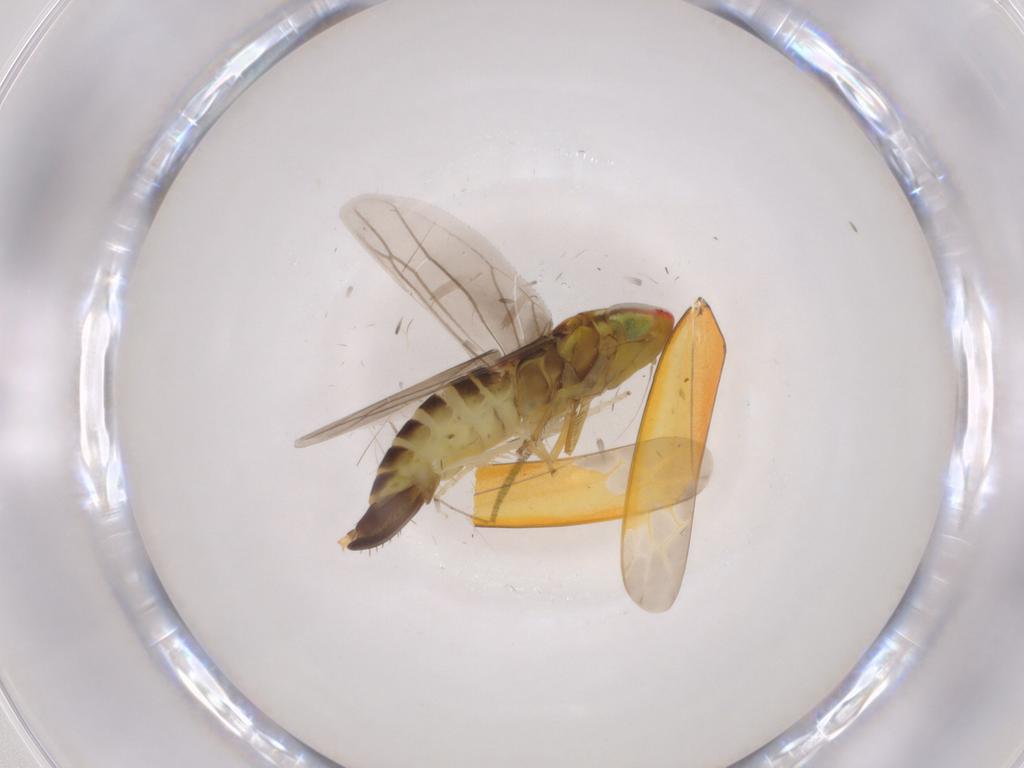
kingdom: Animalia
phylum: Arthropoda
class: Insecta
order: Hemiptera
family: Cicadellidae
